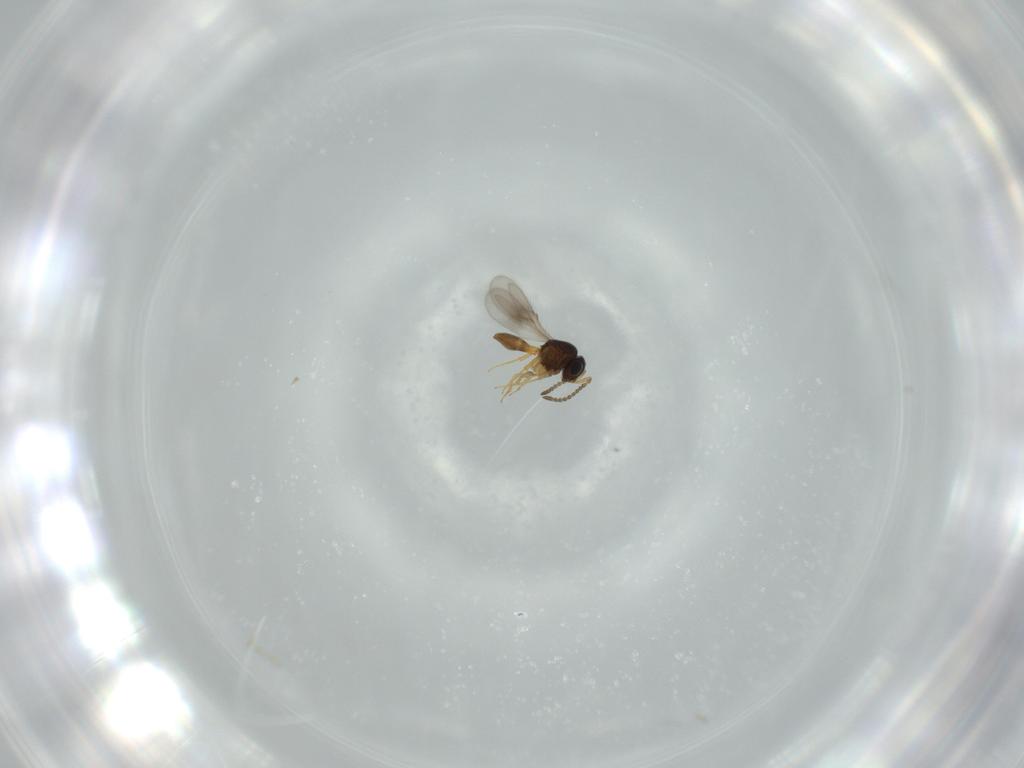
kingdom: Animalia
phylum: Arthropoda
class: Insecta
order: Hymenoptera
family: Scelionidae
